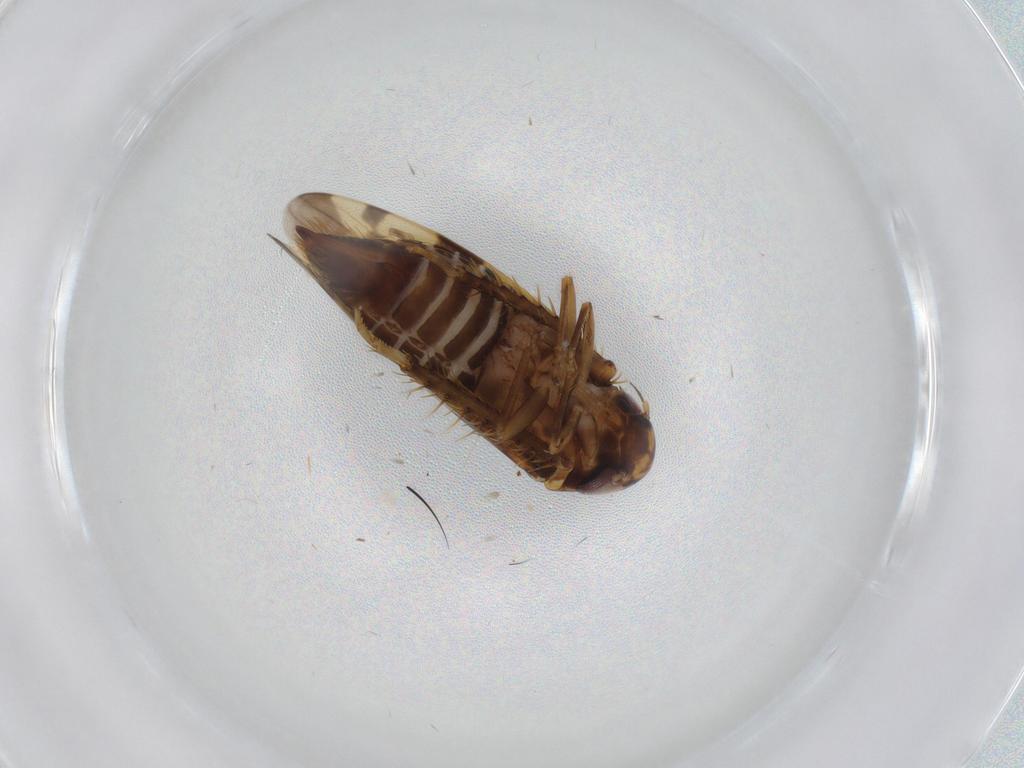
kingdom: Animalia
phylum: Arthropoda
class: Insecta
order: Hemiptera
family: Cicadellidae
